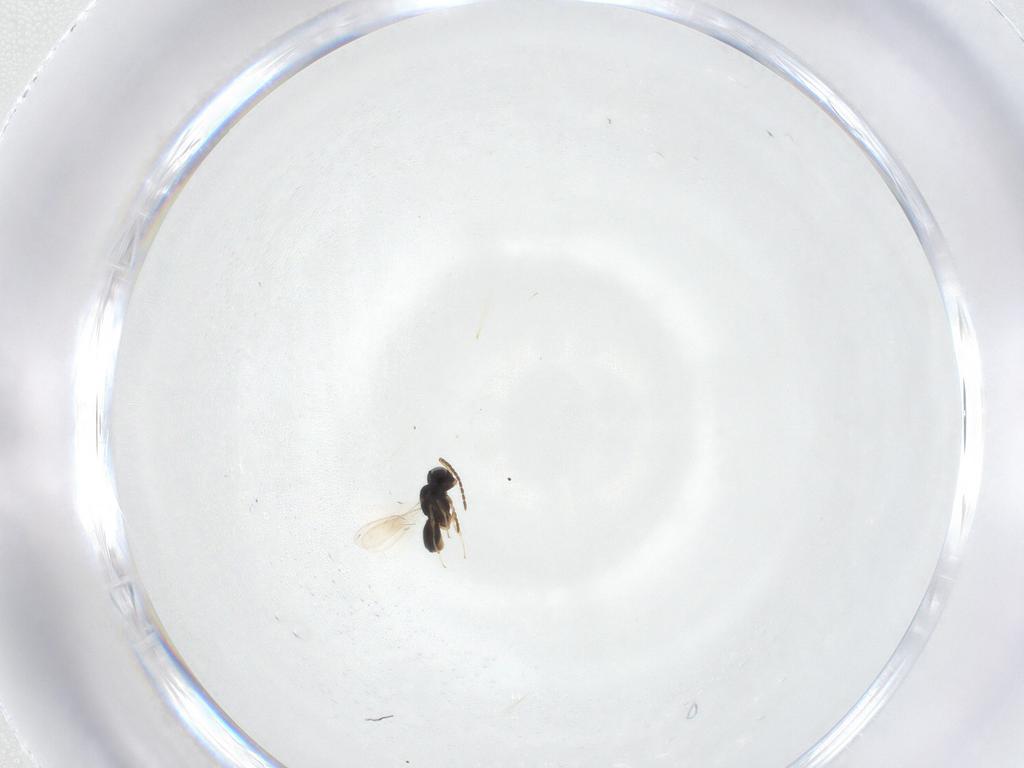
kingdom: Animalia
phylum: Arthropoda
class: Insecta
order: Hymenoptera
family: Scelionidae
